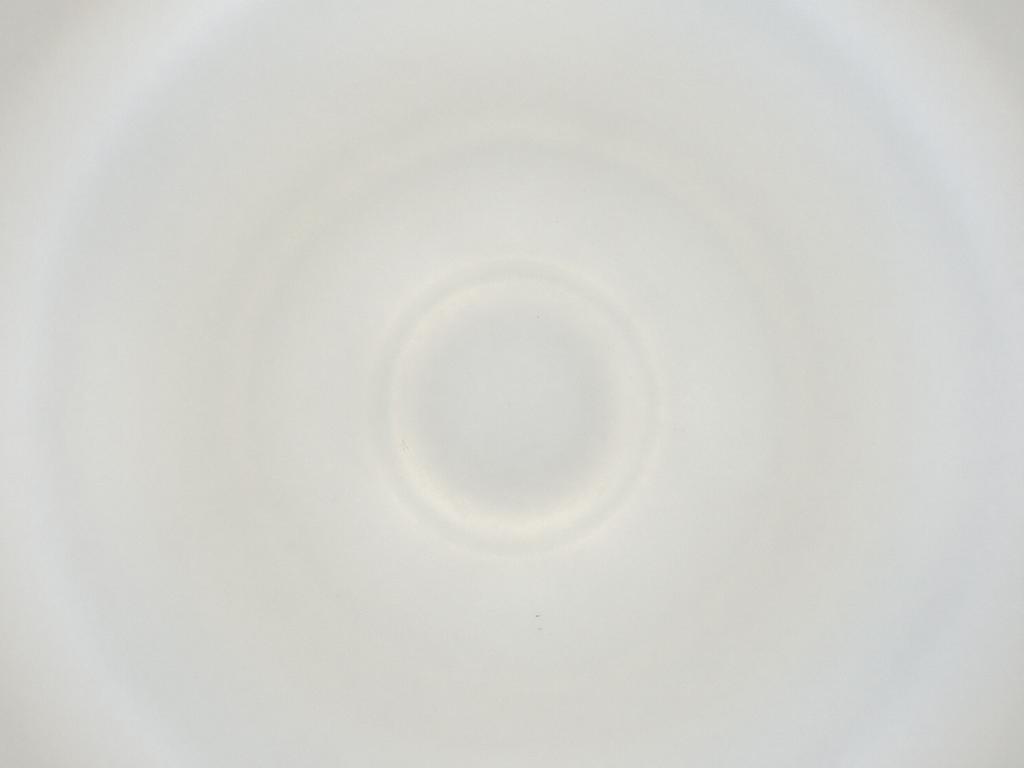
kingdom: Animalia
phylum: Arthropoda
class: Insecta
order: Diptera
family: Cecidomyiidae
